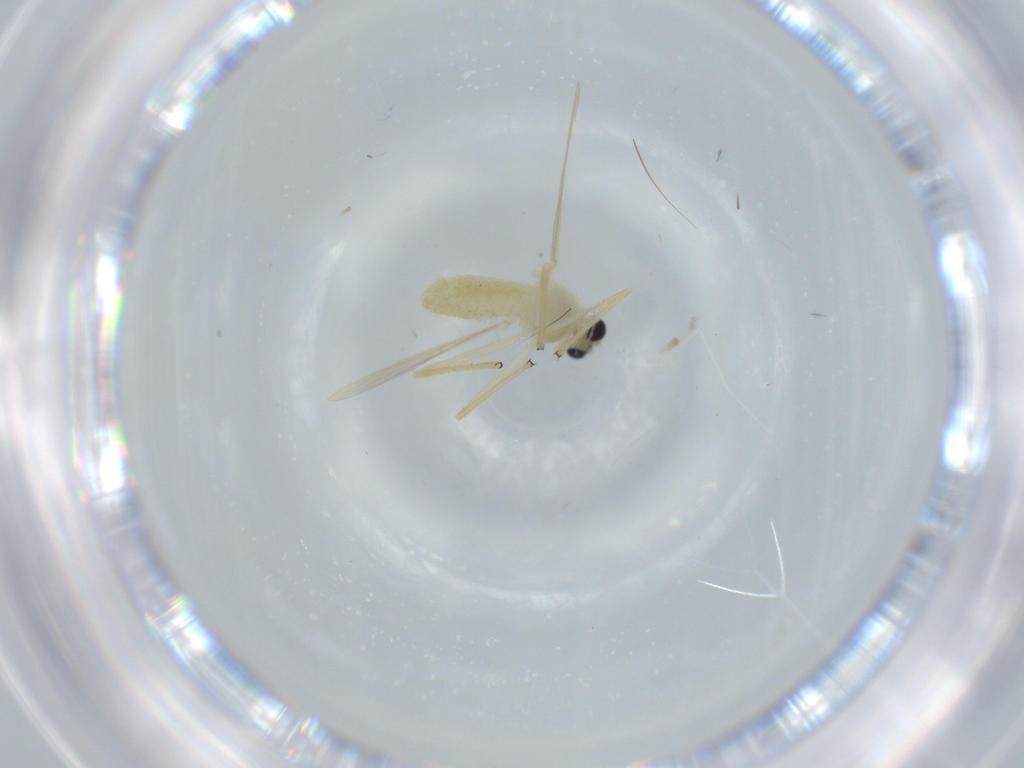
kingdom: Animalia
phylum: Arthropoda
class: Insecta
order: Diptera
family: Chironomidae
